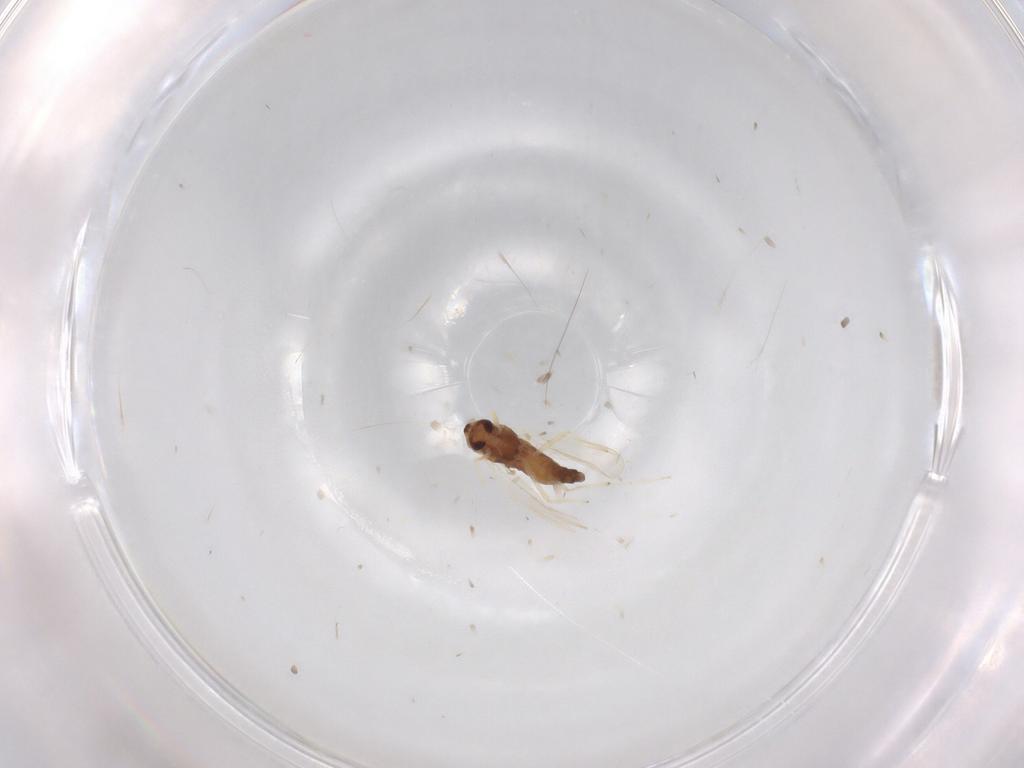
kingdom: Animalia
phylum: Arthropoda
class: Insecta
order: Diptera
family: Chironomidae
